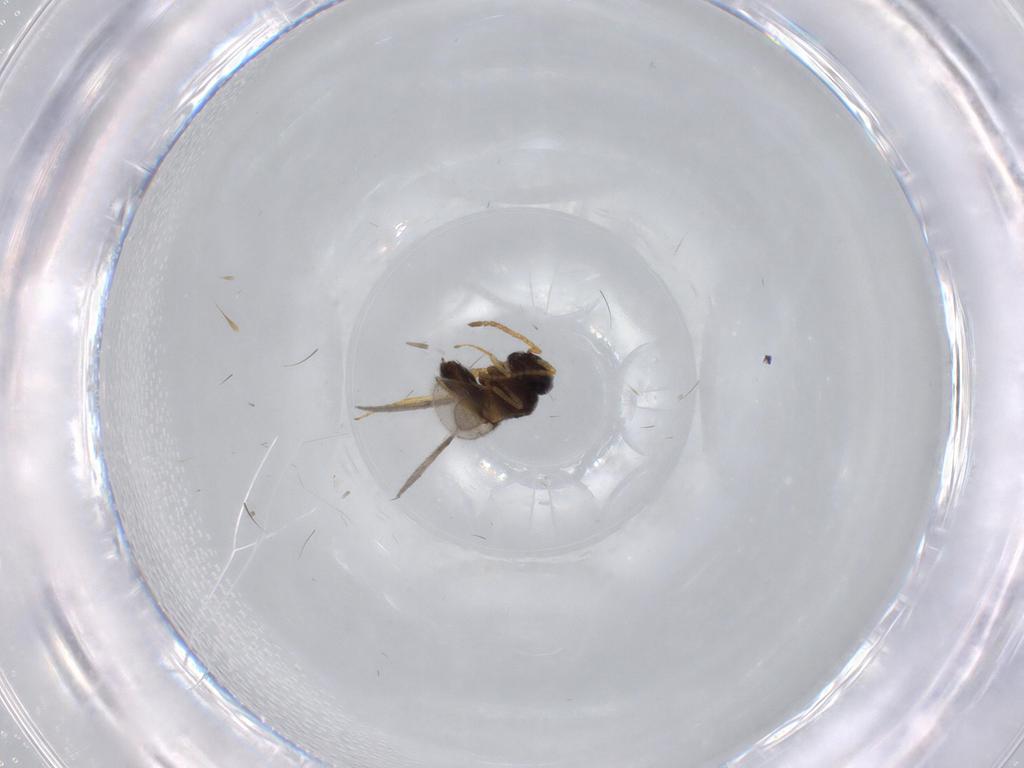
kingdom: Animalia
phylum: Arthropoda
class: Insecta
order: Hymenoptera
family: Scelionidae
